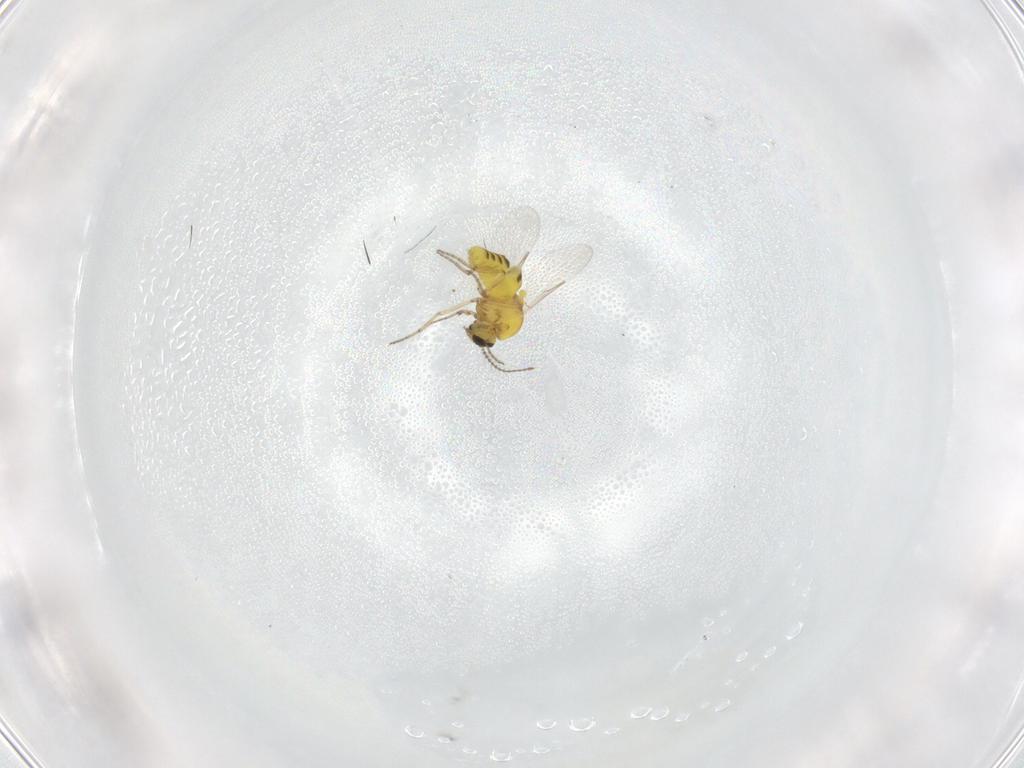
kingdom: Animalia
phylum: Arthropoda
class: Insecta
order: Diptera
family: Ceratopogonidae
